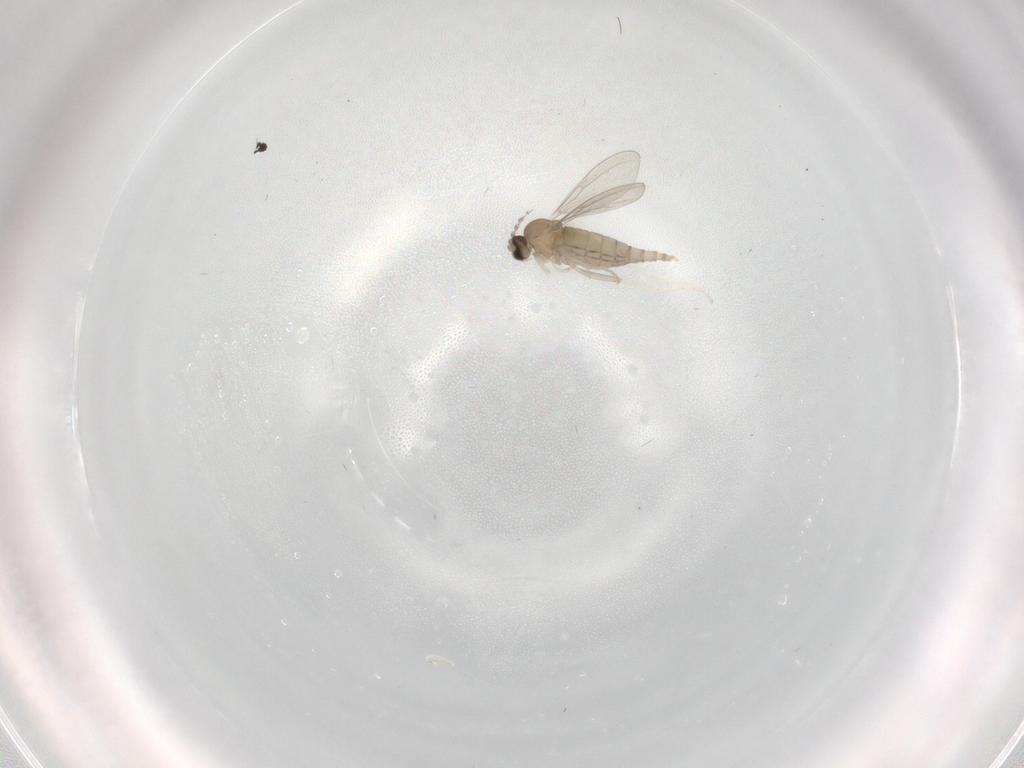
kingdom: Animalia
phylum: Arthropoda
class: Insecta
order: Diptera
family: Cecidomyiidae
